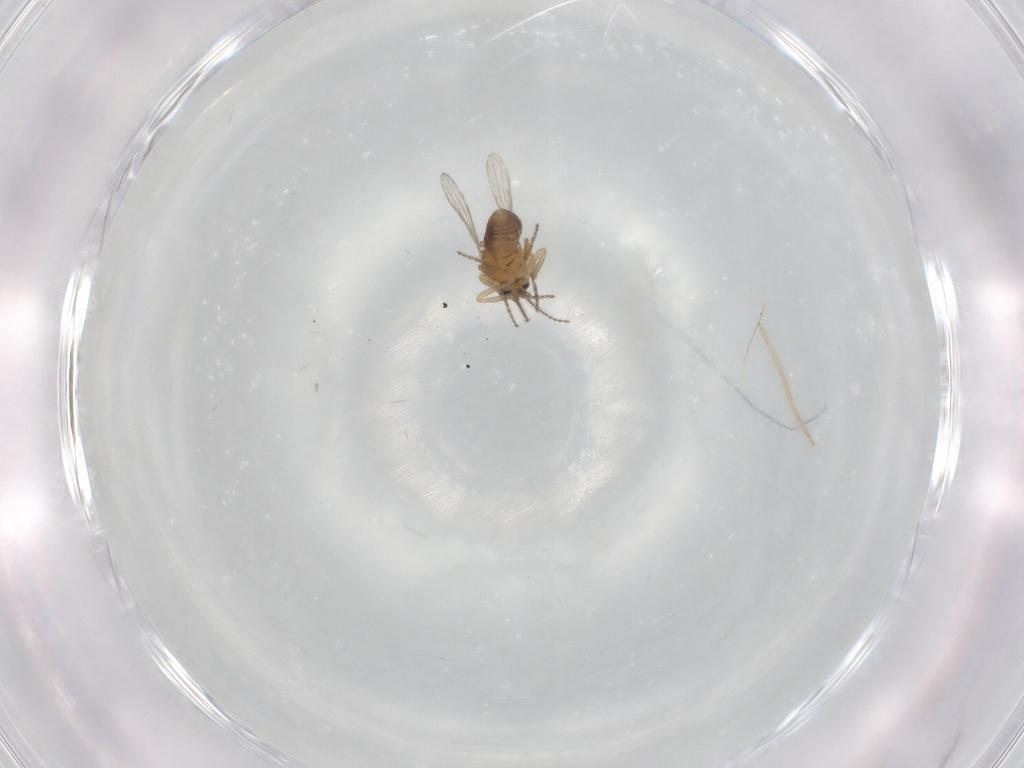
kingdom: Animalia
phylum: Arthropoda
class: Insecta
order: Diptera
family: Ceratopogonidae
